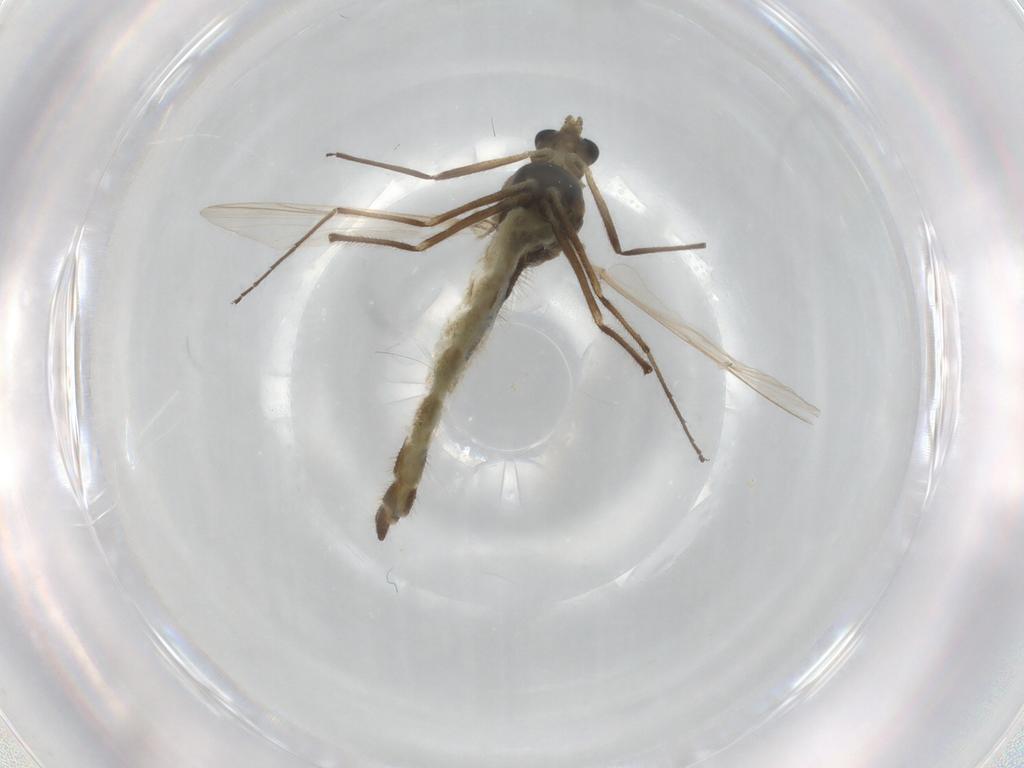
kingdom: Animalia
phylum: Arthropoda
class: Insecta
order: Diptera
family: Chironomidae
